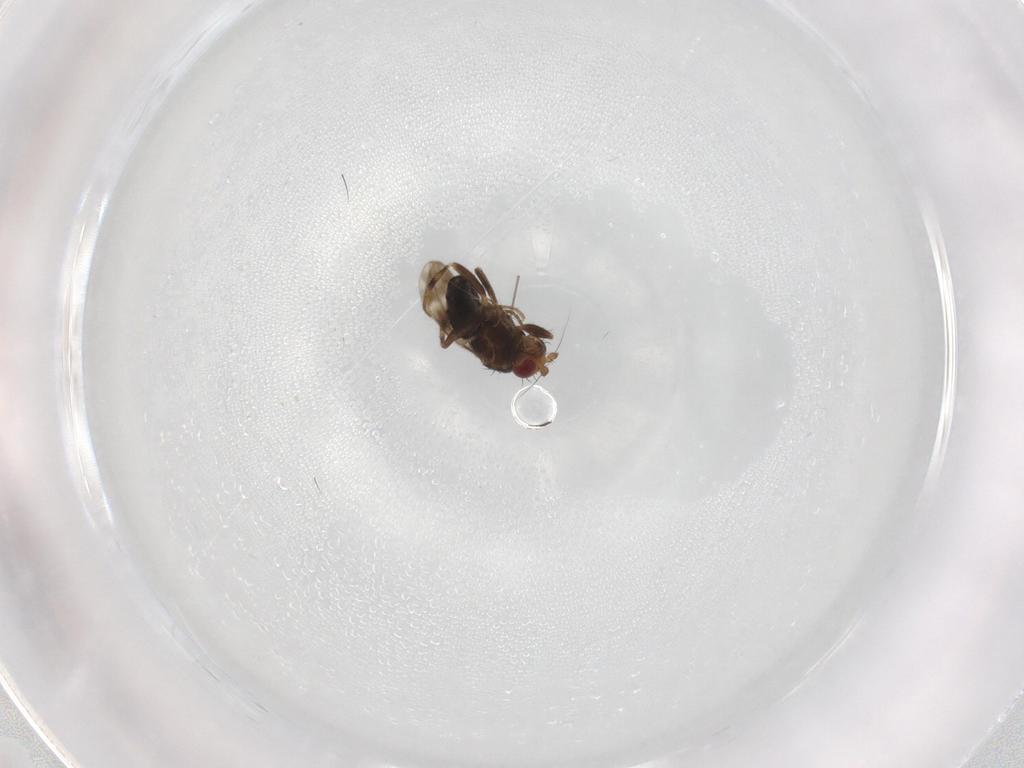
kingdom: Animalia
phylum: Arthropoda
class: Insecta
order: Diptera
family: Sphaeroceridae
